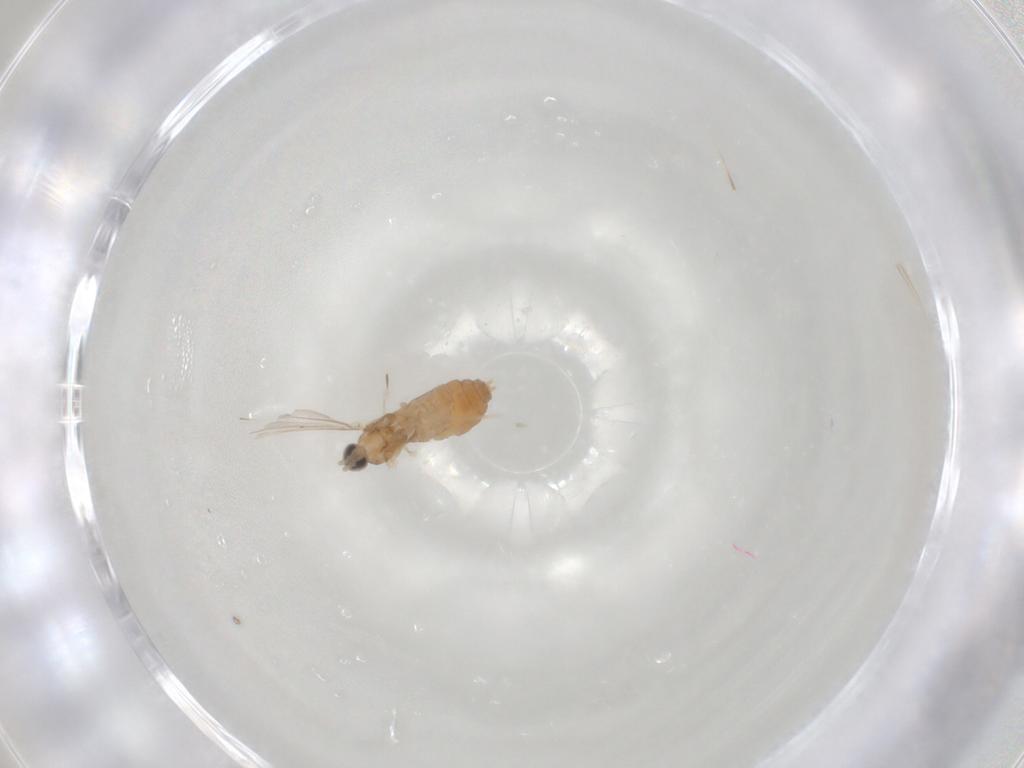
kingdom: Animalia
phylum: Arthropoda
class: Insecta
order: Diptera
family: Cecidomyiidae
